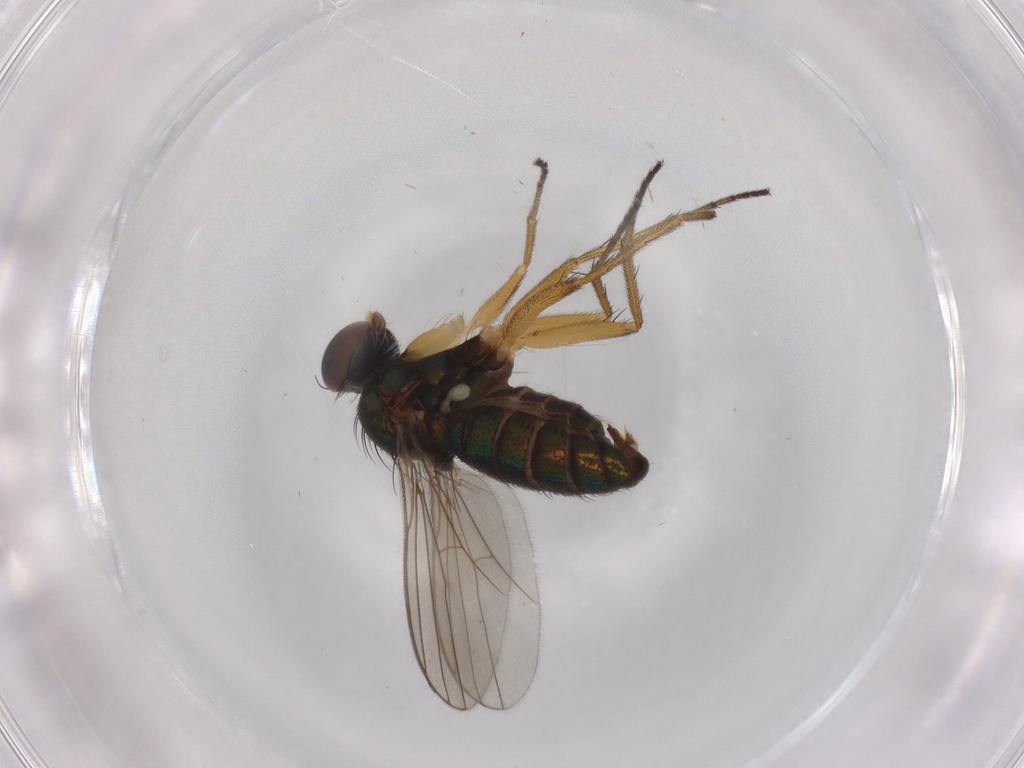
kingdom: Animalia
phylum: Arthropoda
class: Insecta
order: Diptera
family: Dolichopodidae
